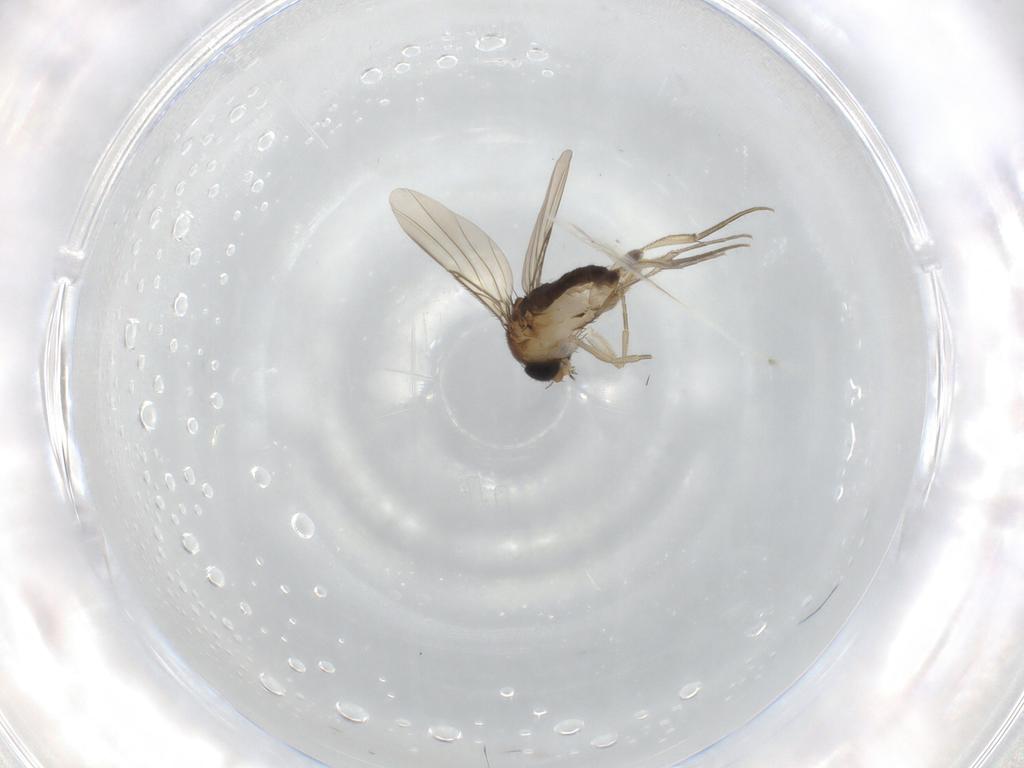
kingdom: Animalia
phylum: Arthropoda
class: Insecta
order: Diptera
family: Phoridae
